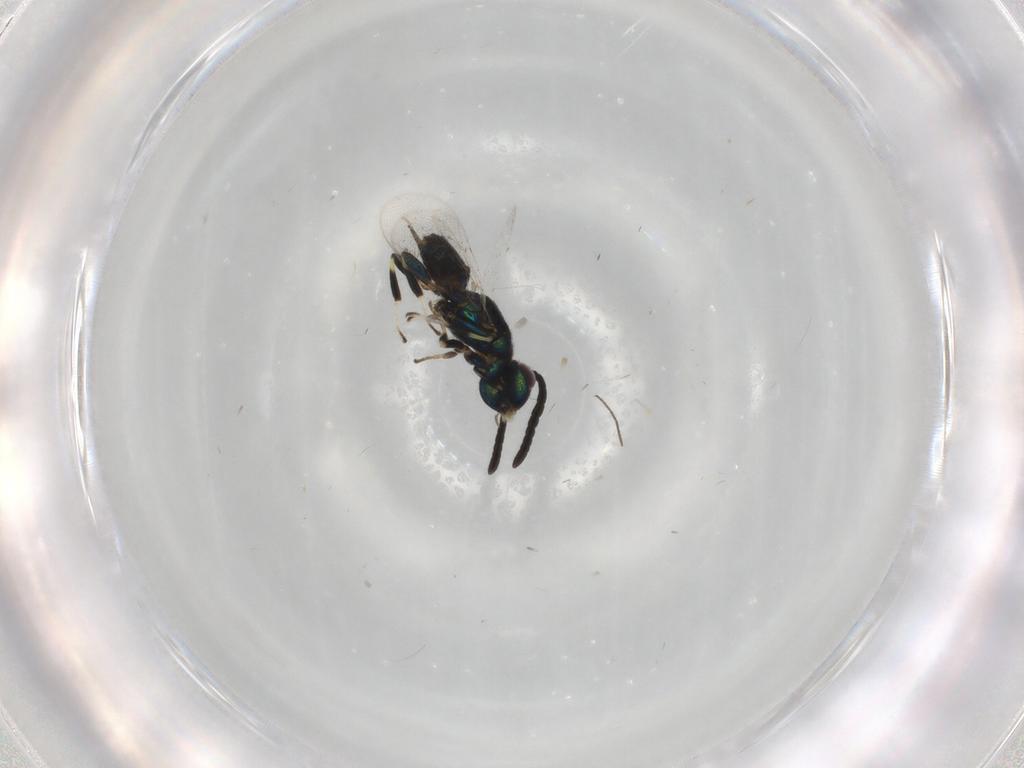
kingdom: Animalia
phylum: Arthropoda
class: Insecta
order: Hymenoptera
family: Eupelmidae
